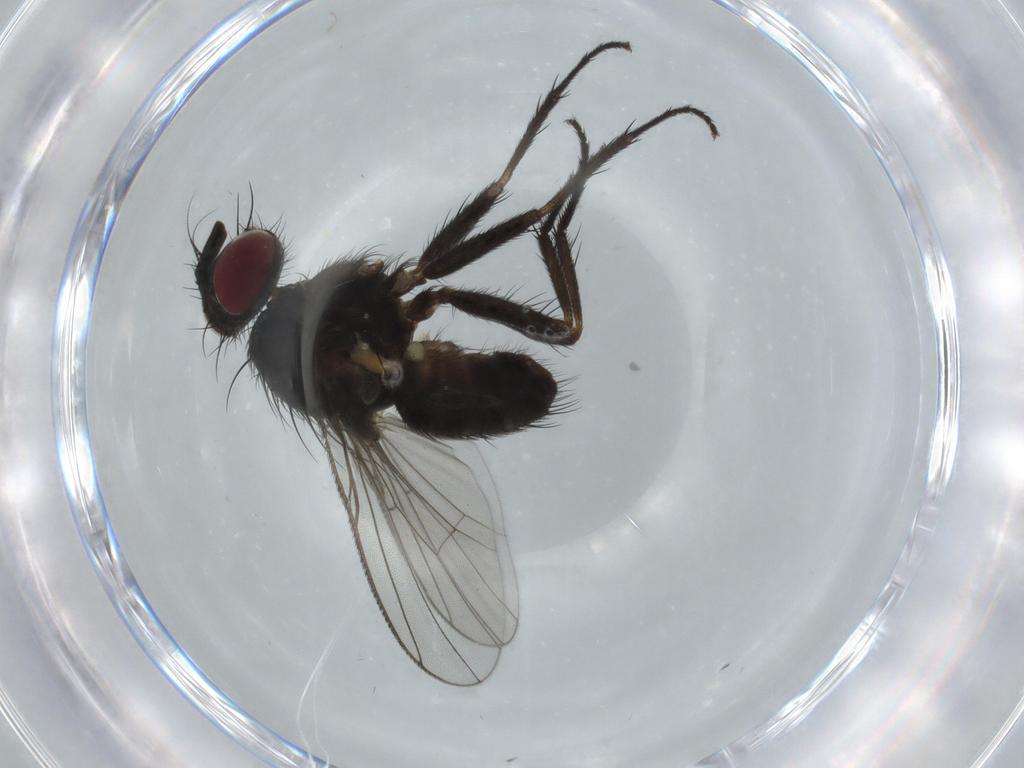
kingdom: Animalia
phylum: Arthropoda
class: Insecta
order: Diptera
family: Muscidae
